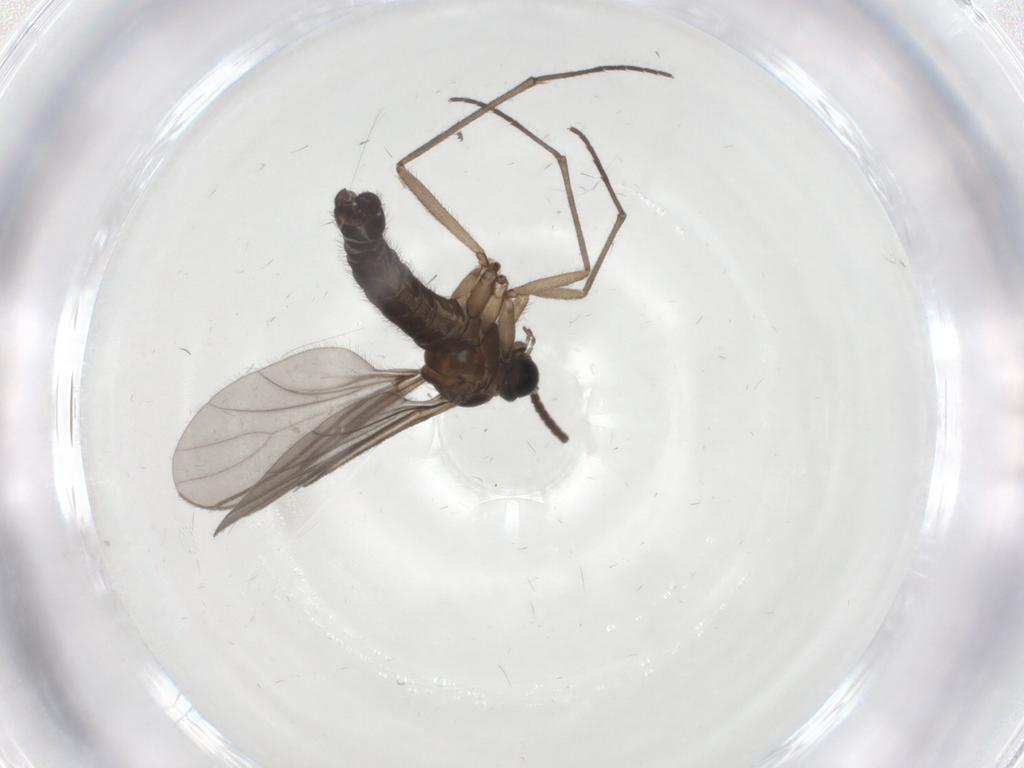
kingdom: Animalia
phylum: Arthropoda
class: Insecta
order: Diptera
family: Sciaridae
